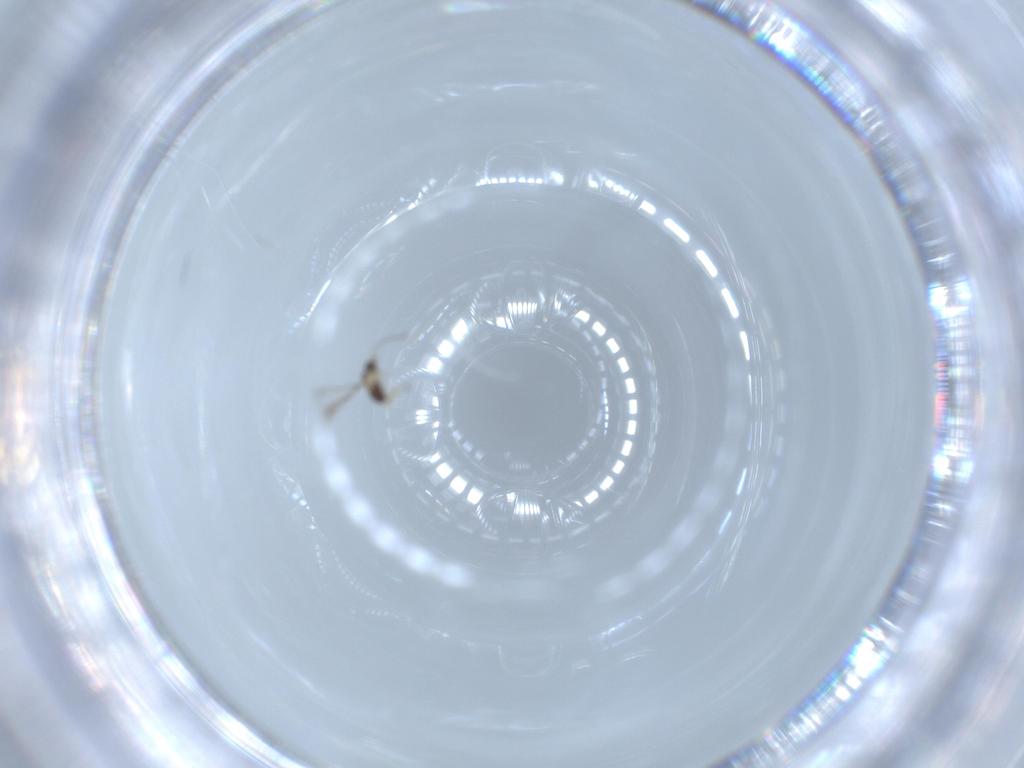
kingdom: Animalia
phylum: Arthropoda
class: Insecta
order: Hymenoptera
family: Mymaridae
